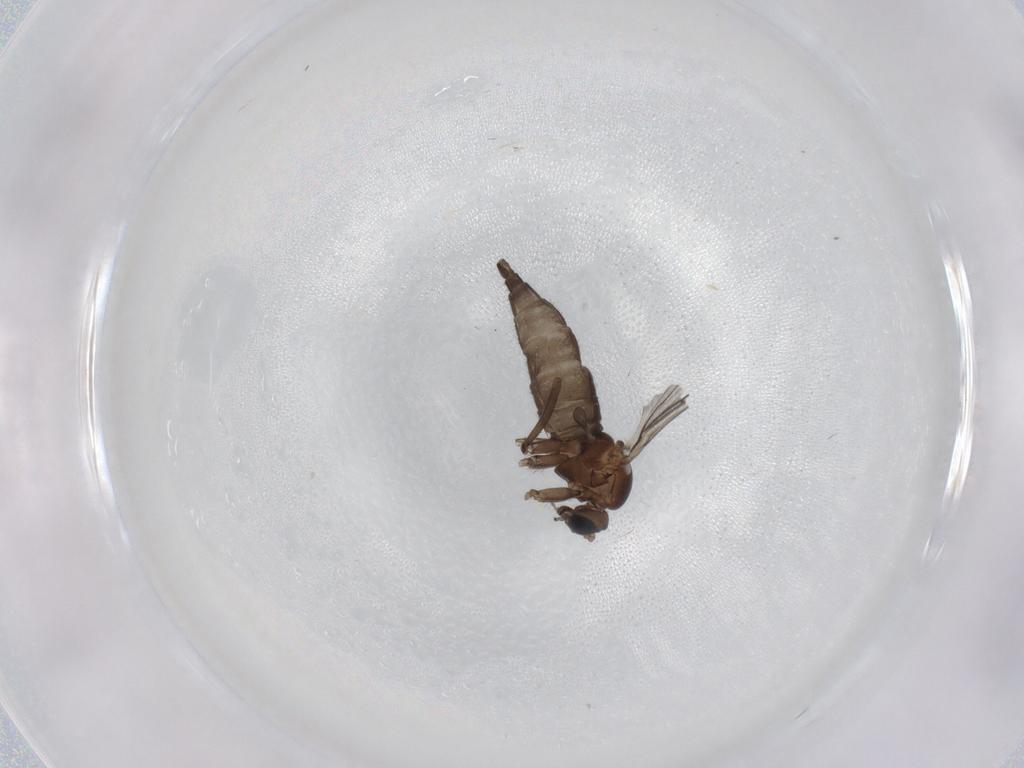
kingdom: Animalia
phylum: Arthropoda
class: Insecta
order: Diptera
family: Sciaridae
